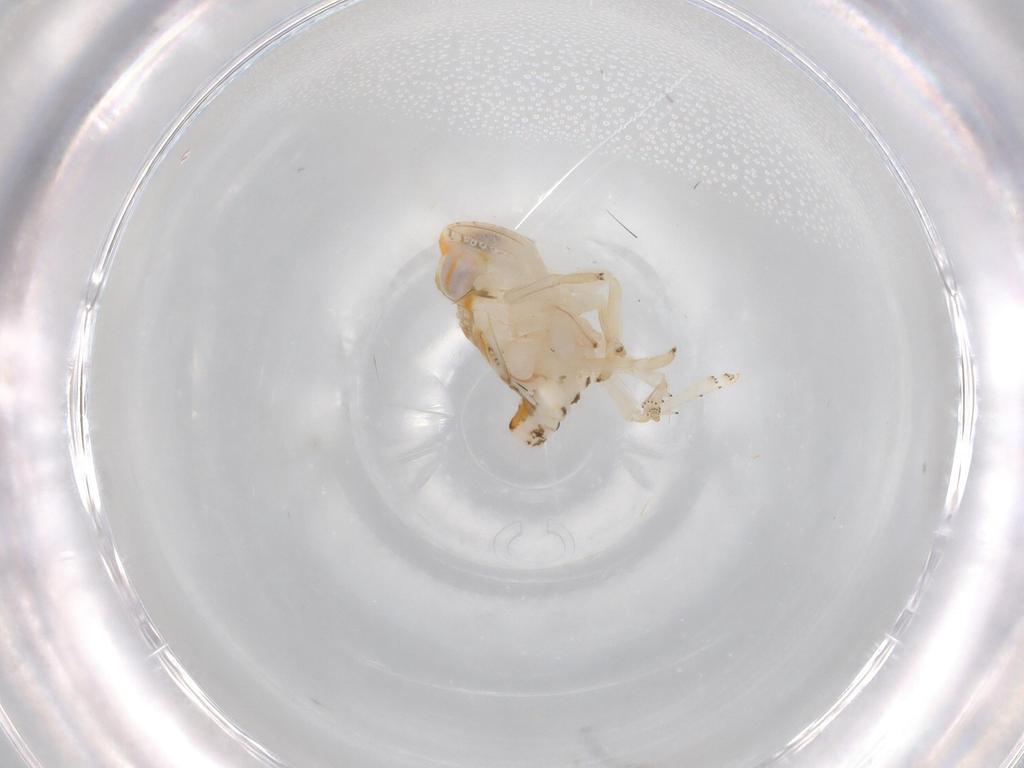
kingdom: Animalia
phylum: Arthropoda
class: Insecta
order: Hemiptera
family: Nogodinidae
